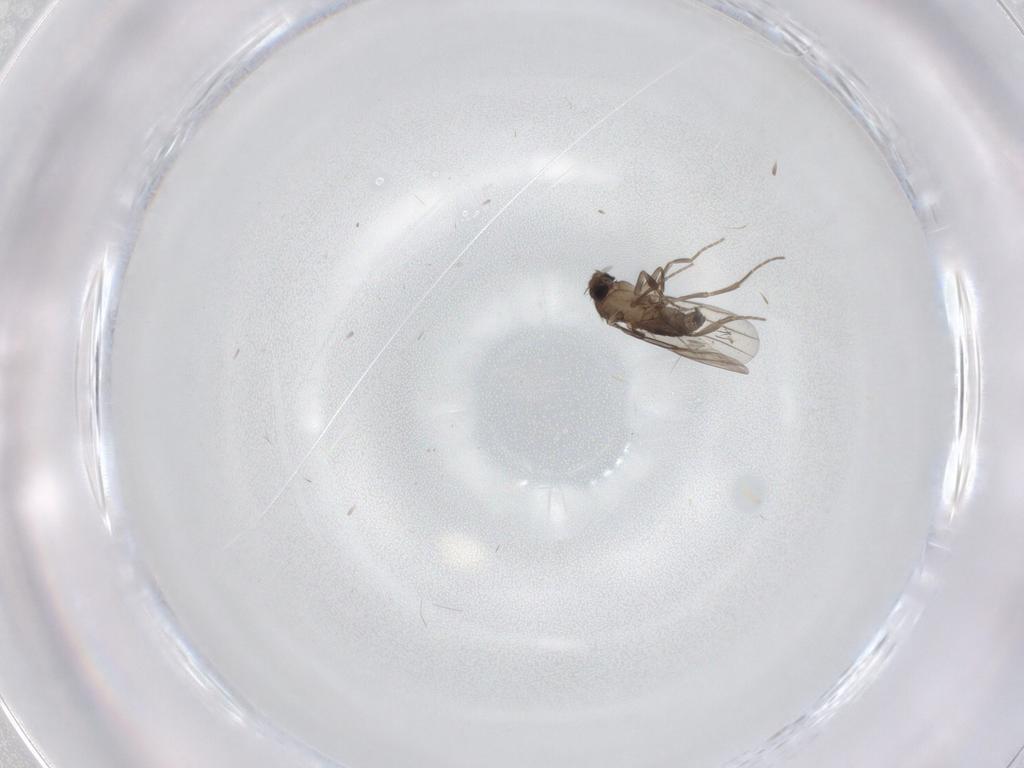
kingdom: Animalia
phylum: Arthropoda
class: Insecta
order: Diptera
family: Phoridae
